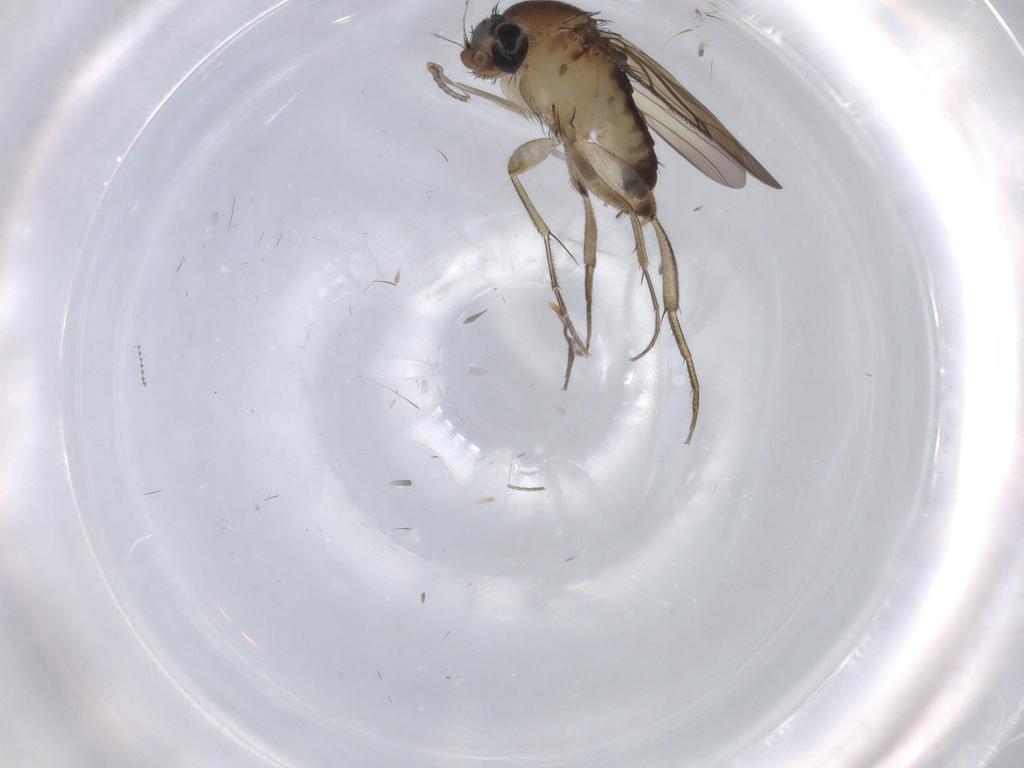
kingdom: Animalia
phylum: Arthropoda
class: Insecta
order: Diptera
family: Phoridae
